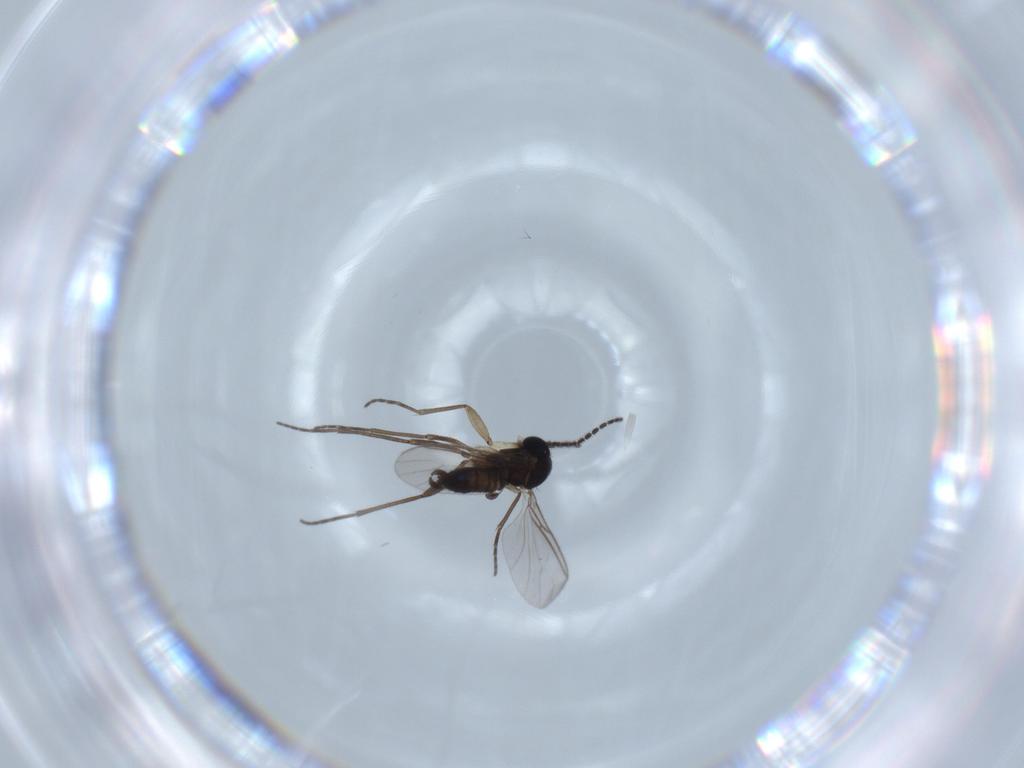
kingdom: Animalia
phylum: Arthropoda
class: Insecta
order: Diptera
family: Sciaridae
